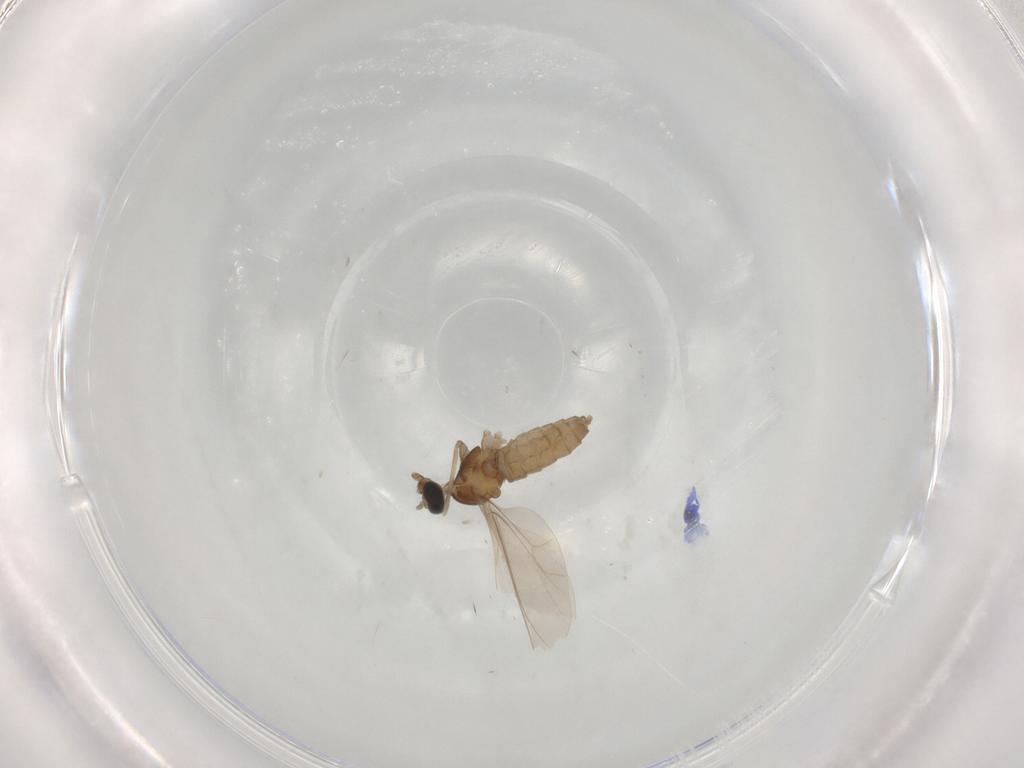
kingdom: Animalia
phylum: Arthropoda
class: Insecta
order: Diptera
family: Cecidomyiidae
